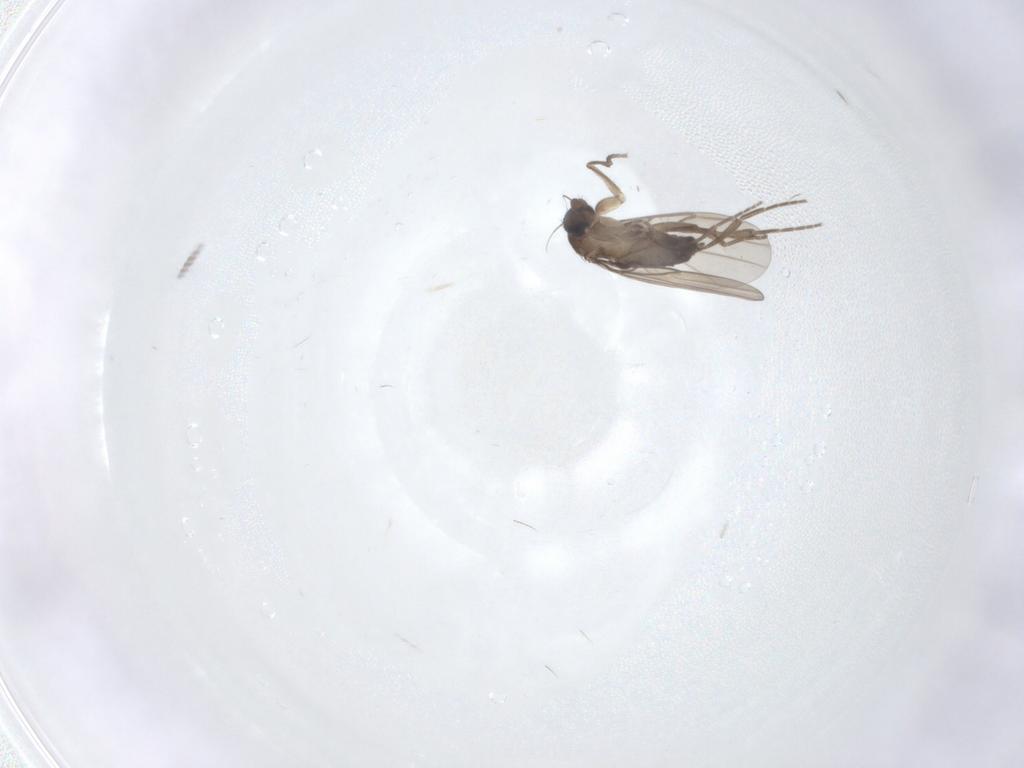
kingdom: Animalia
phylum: Arthropoda
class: Insecta
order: Diptera
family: Phoridae
